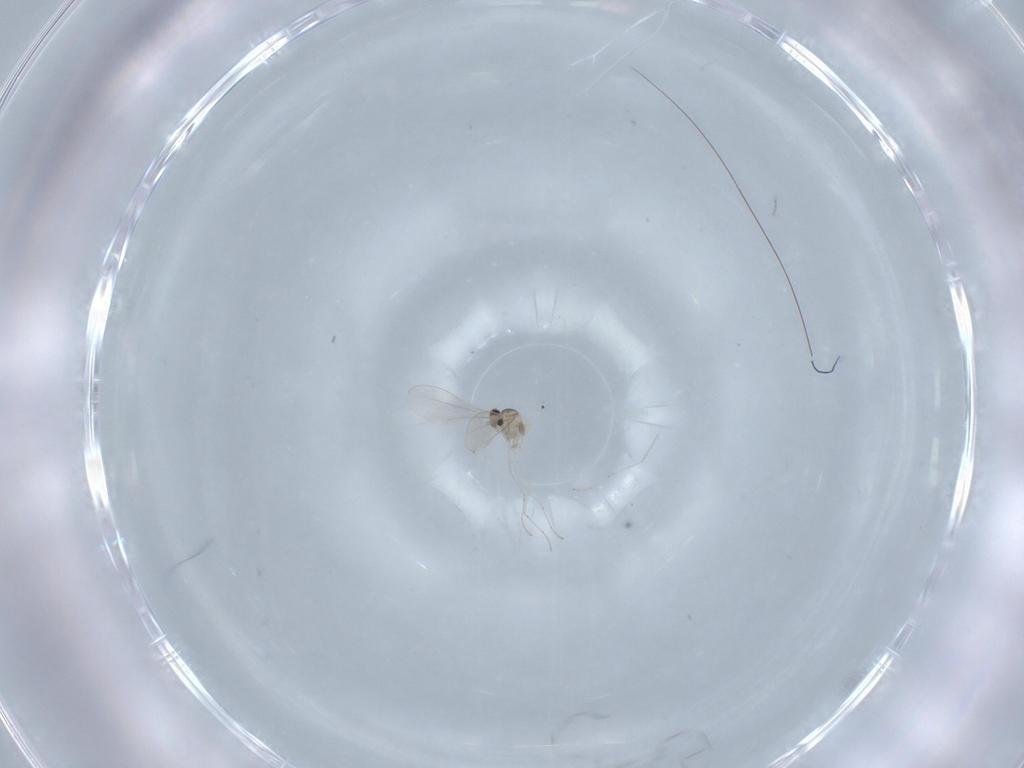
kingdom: Animalia
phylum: Arthropoda
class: Insecta
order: Diptera
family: Cecidomyiidae
